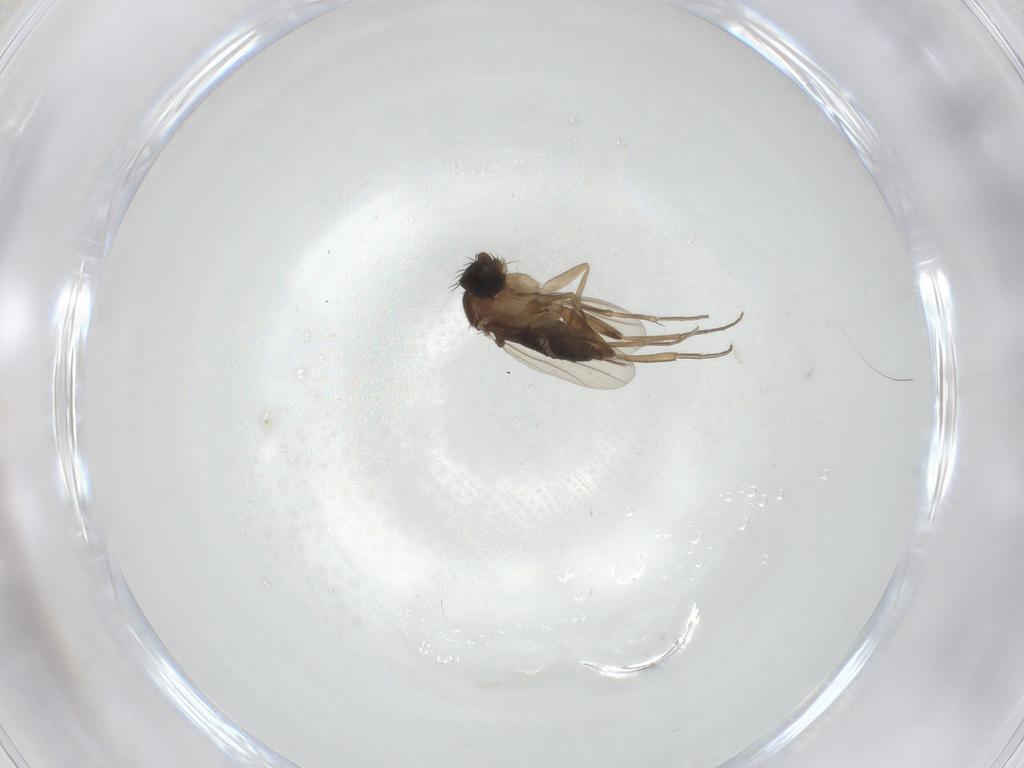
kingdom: Animalia
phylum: Arthropoda
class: Insecta
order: Diptera
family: Phoridae
